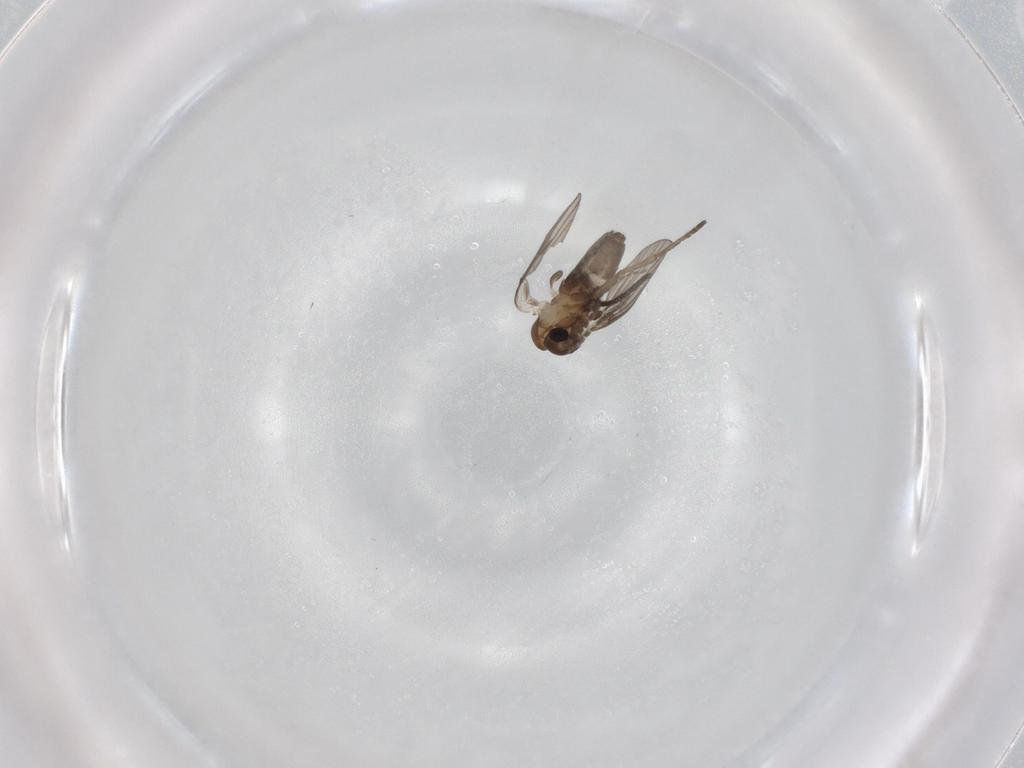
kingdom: Animalia
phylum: Arthropoda
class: Insecta
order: Diptera
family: Psychodidae
